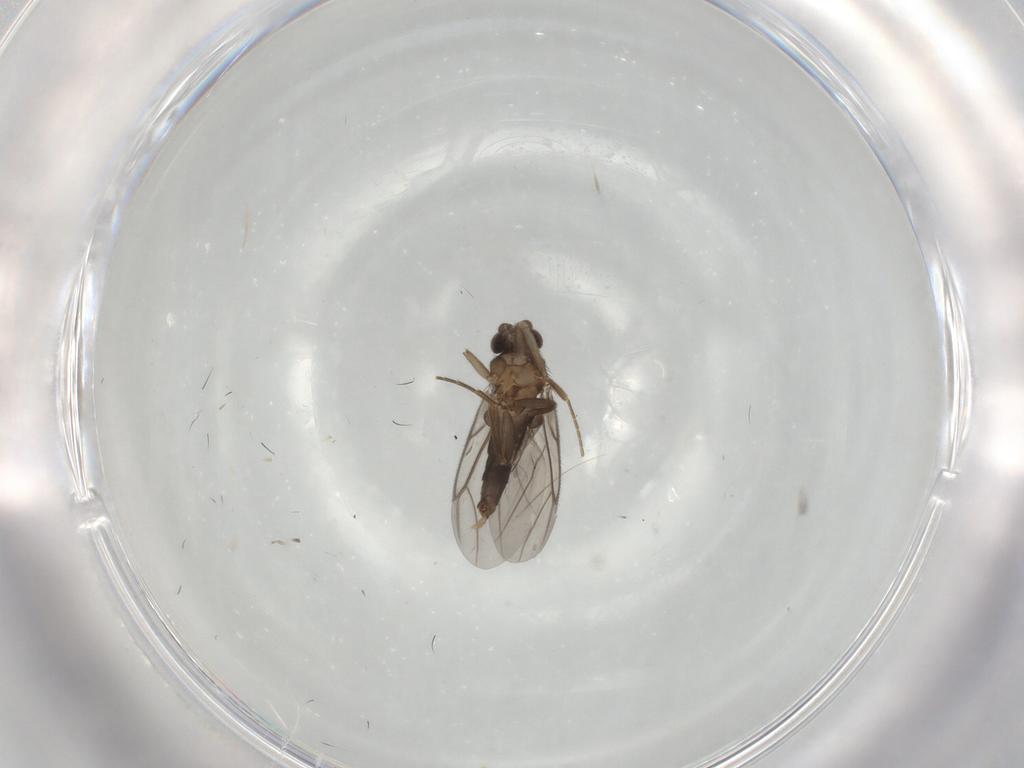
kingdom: Animalia
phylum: Arthropoda
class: Insecta
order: Diptera
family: Phoridae
